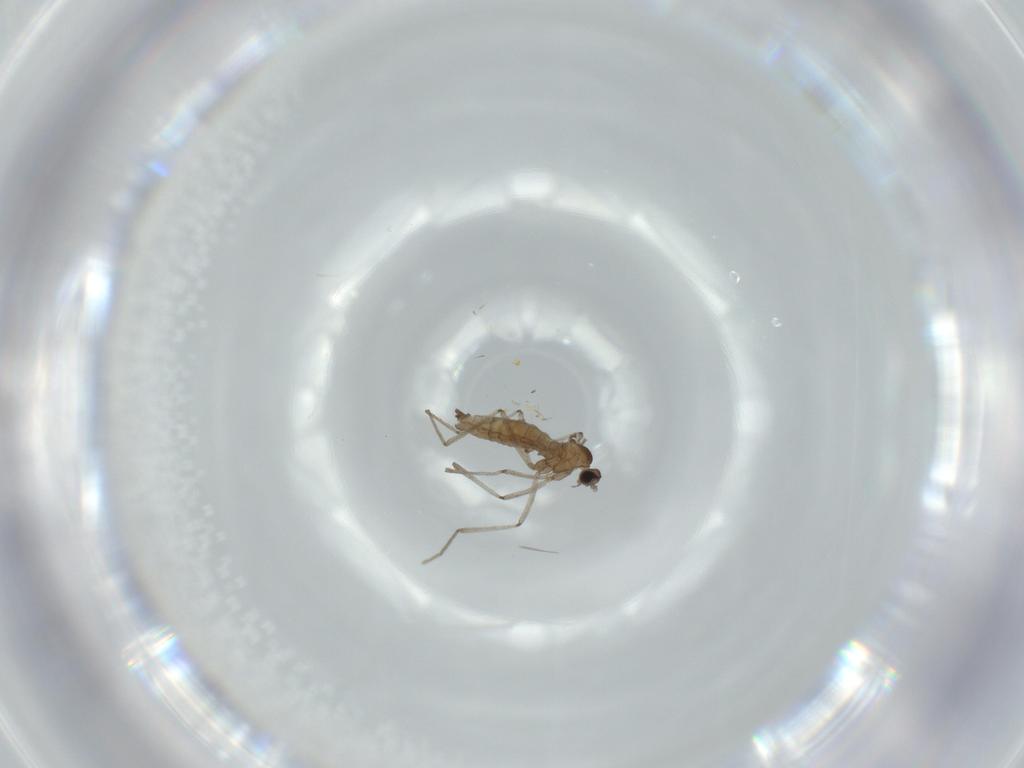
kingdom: Animalia
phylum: Arthropoda
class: Insecta
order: Diptera
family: Cecidomyiidae
